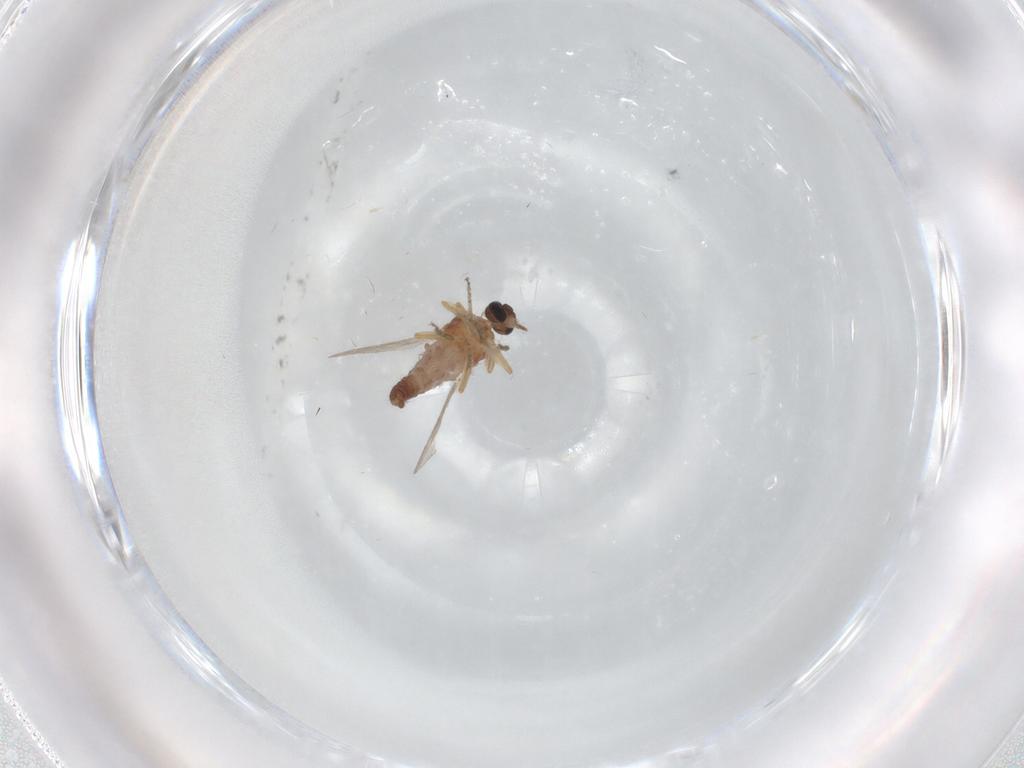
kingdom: Animalia
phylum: Arthropoda
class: Insecta
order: Diptera
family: Ceratopogonidae
